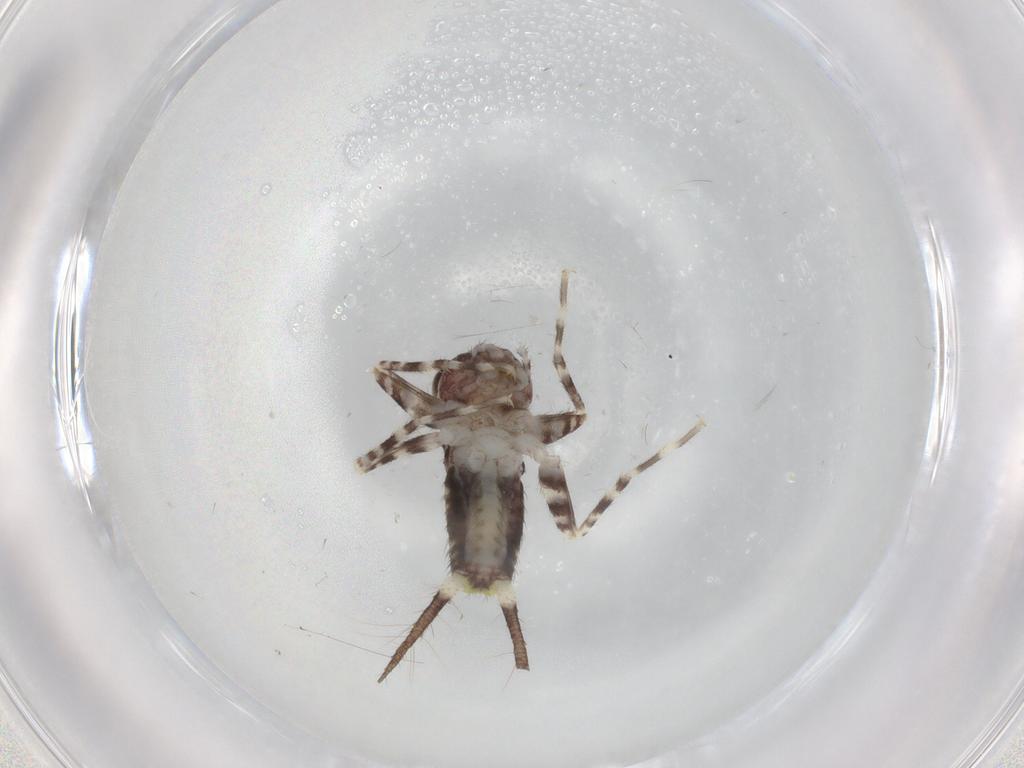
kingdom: Animalia
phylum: Arthropoda
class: Insecta
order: Orthoptera
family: Gryllidae
